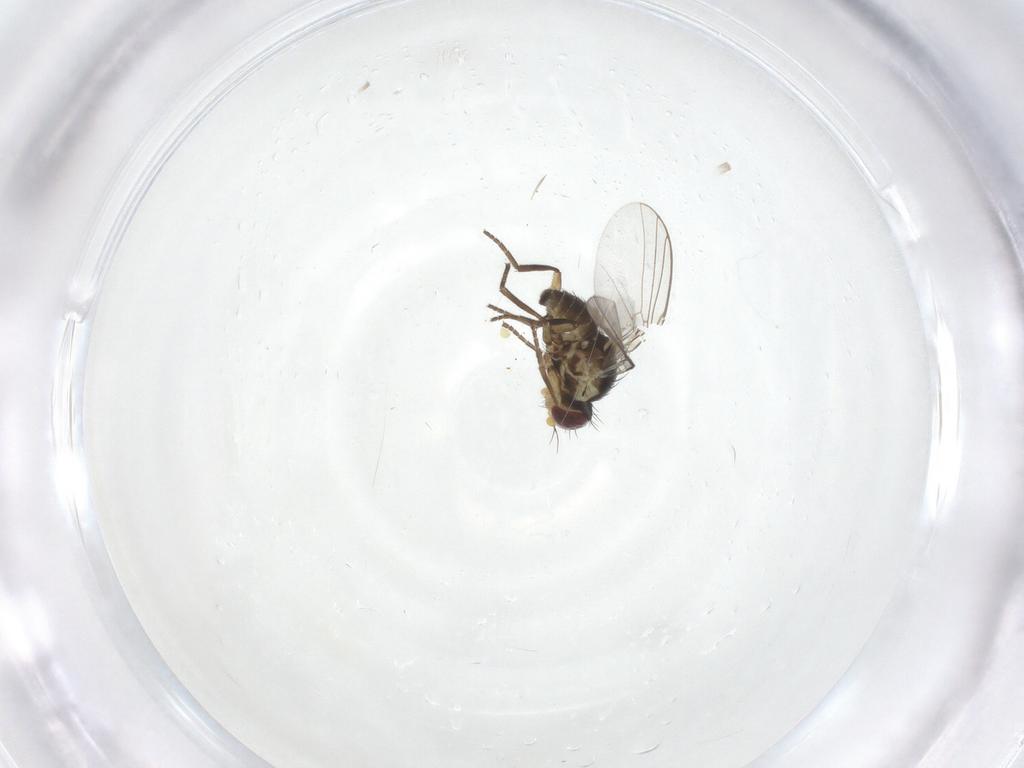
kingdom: Animalia
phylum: Arthropoda
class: Insecta
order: Diptera
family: Agromyzidae
